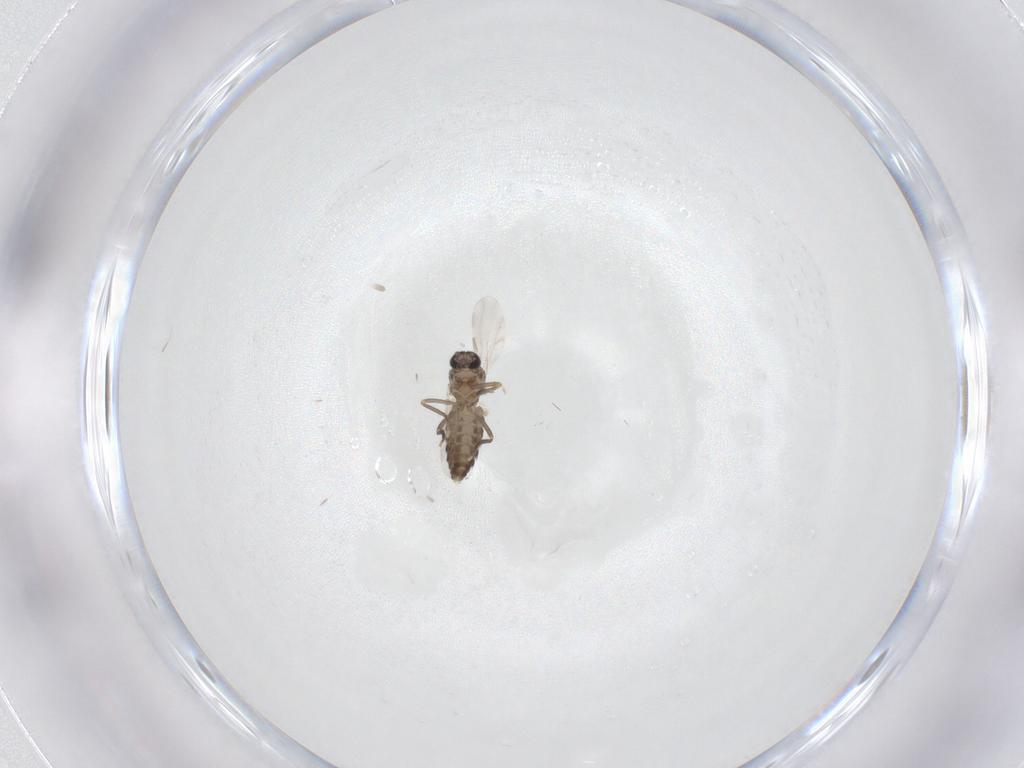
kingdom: Animalia
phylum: Arthropoda
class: Insecta
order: Diptera
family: Ceratopogonidae
